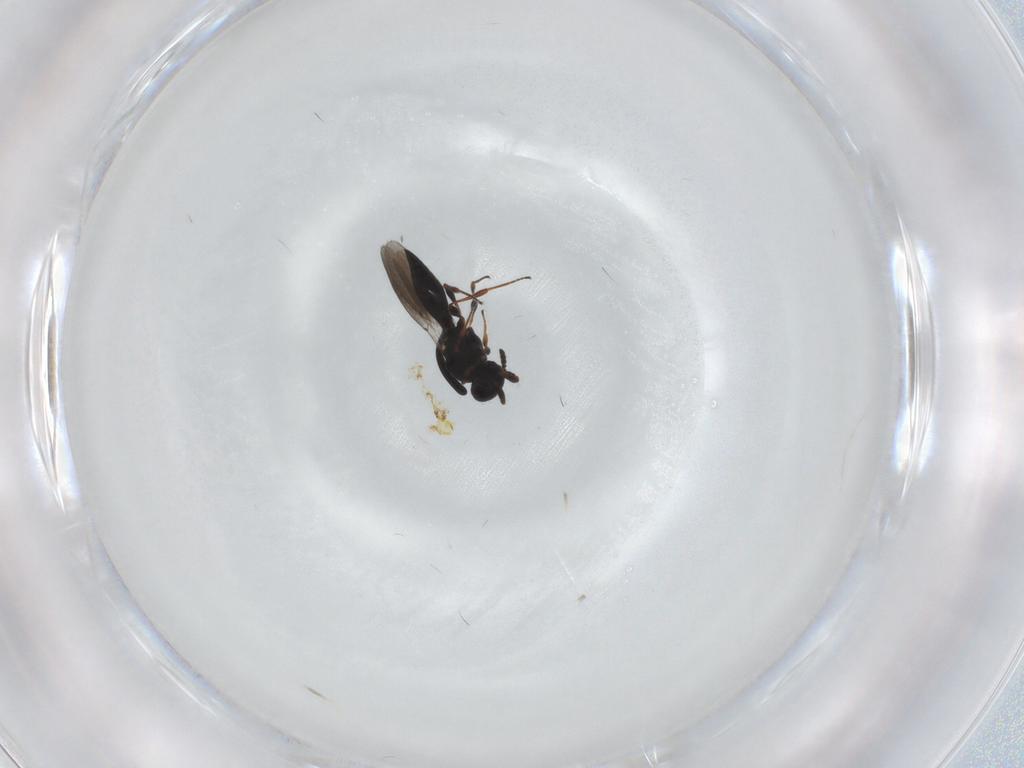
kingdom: Animalia
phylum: Arthropoda
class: Insecta
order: Hymenoptera
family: Platygastridae
